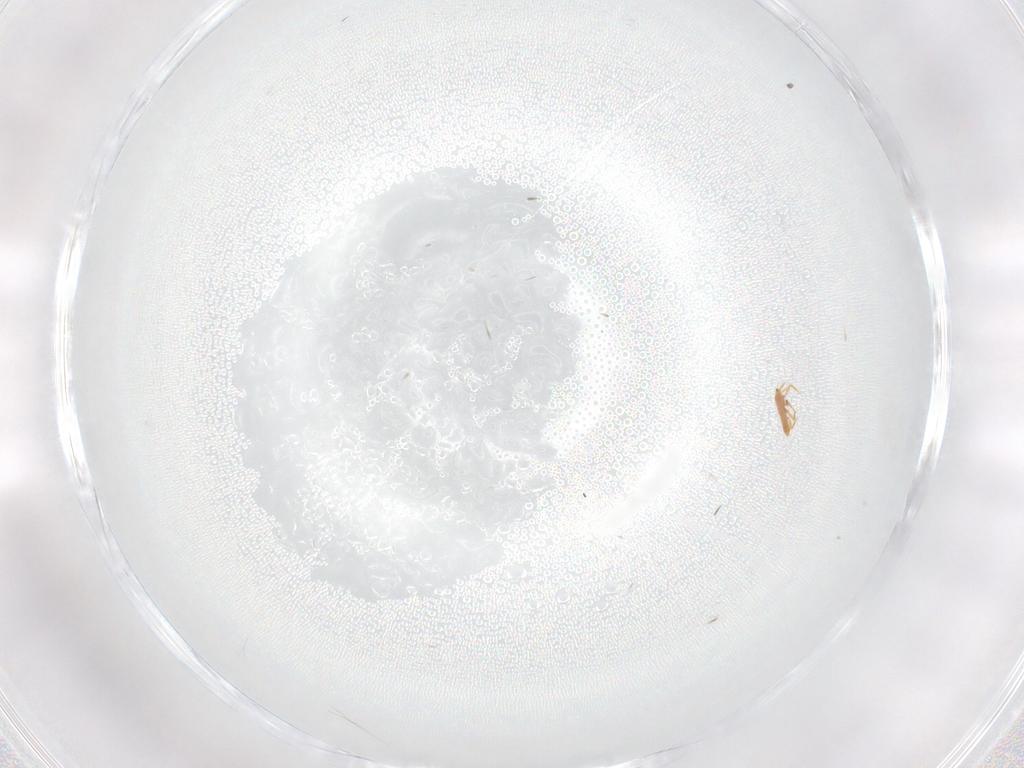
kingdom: Animalia
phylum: Arthropoda
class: Insecta
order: Hemiptera
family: Coccoidea_incertae_sedis
